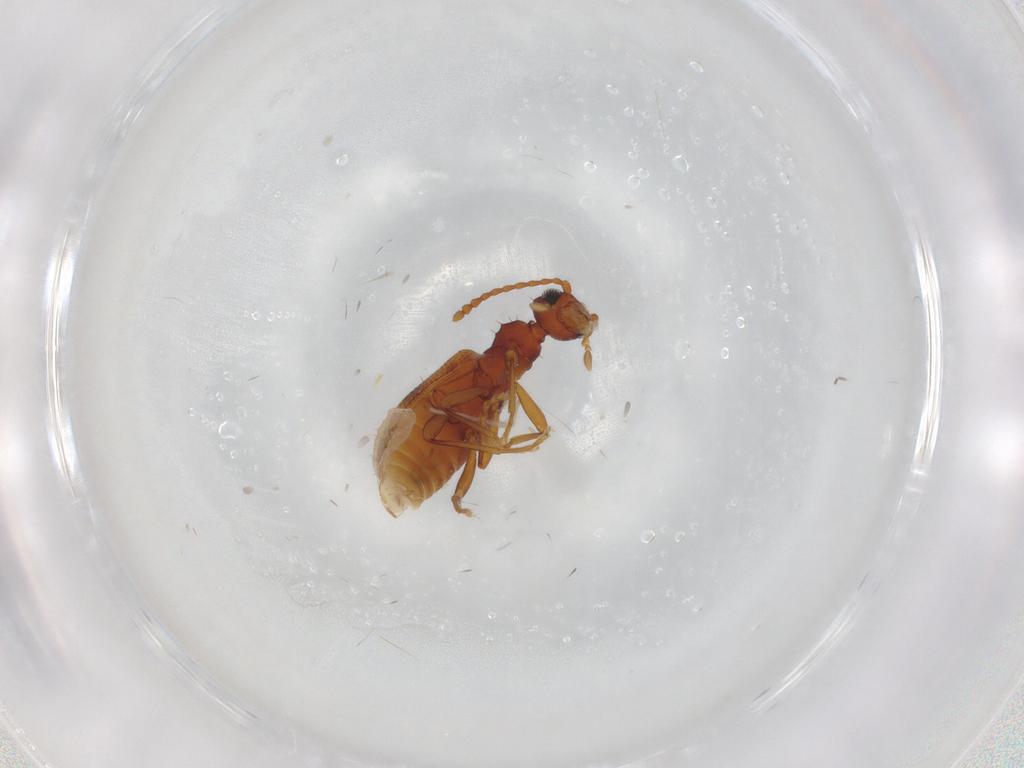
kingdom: Animalia
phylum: Arthropoda
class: Insecta
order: Coleoptera
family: Anthicidae
